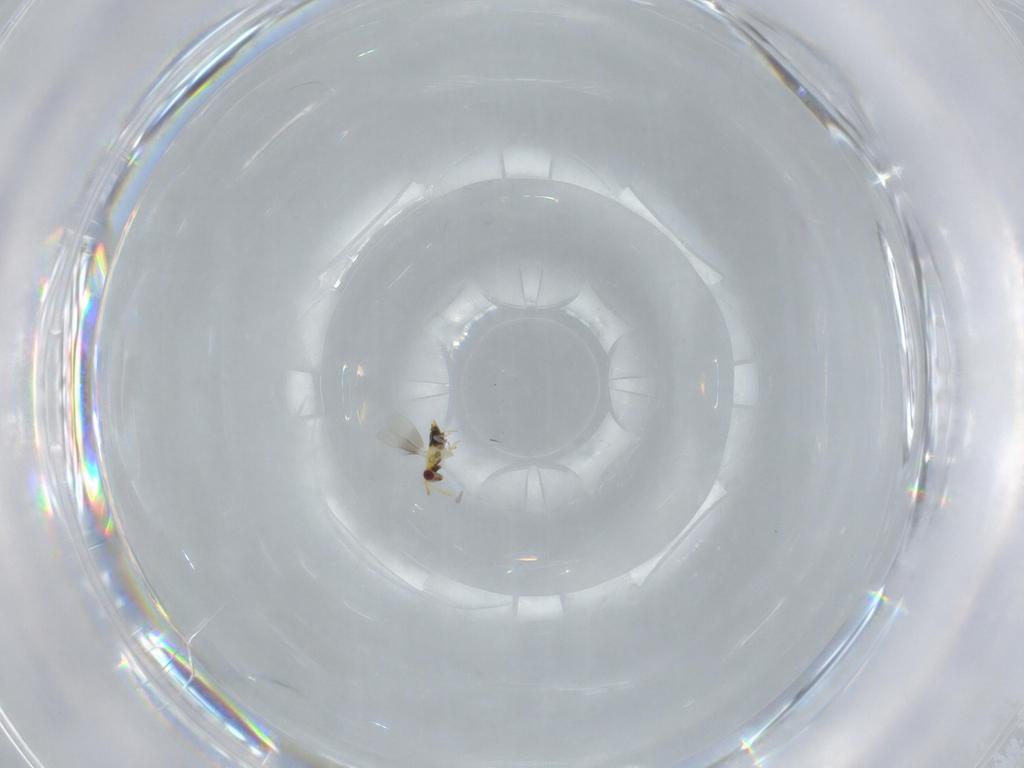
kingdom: Animalia
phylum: Arthropoda
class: Insecta
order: Hymenoptera
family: Aphelinidae
